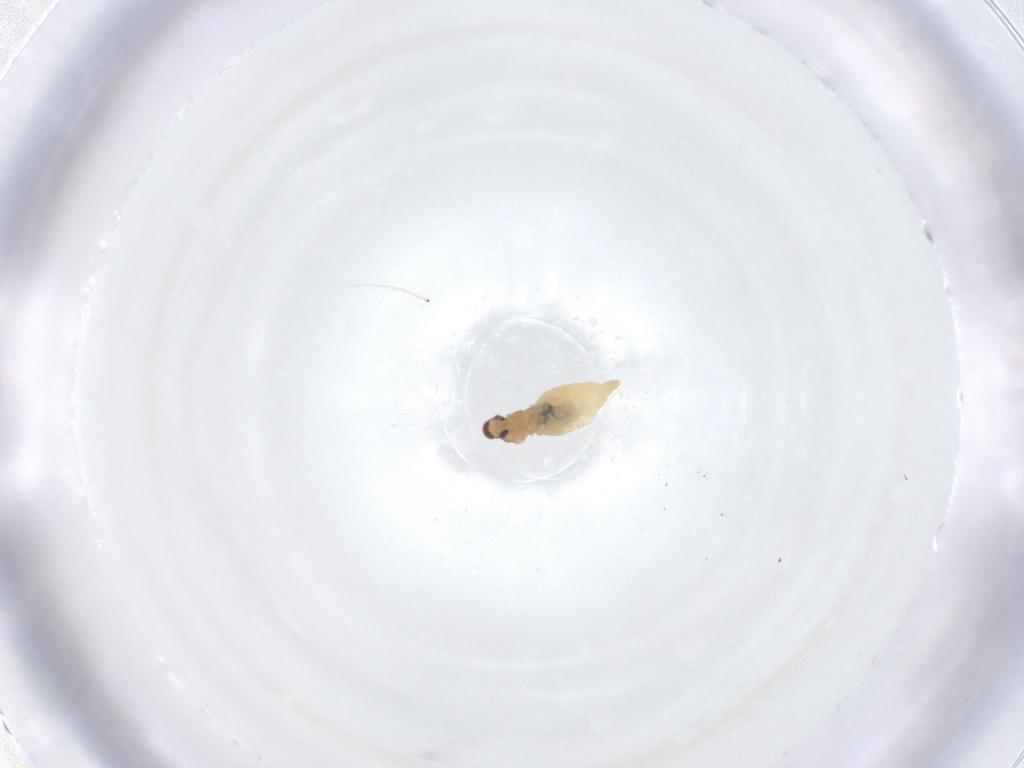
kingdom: Animalia
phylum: Arthropoda
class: Insecta
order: Diptera
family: Cecidomyiidae
